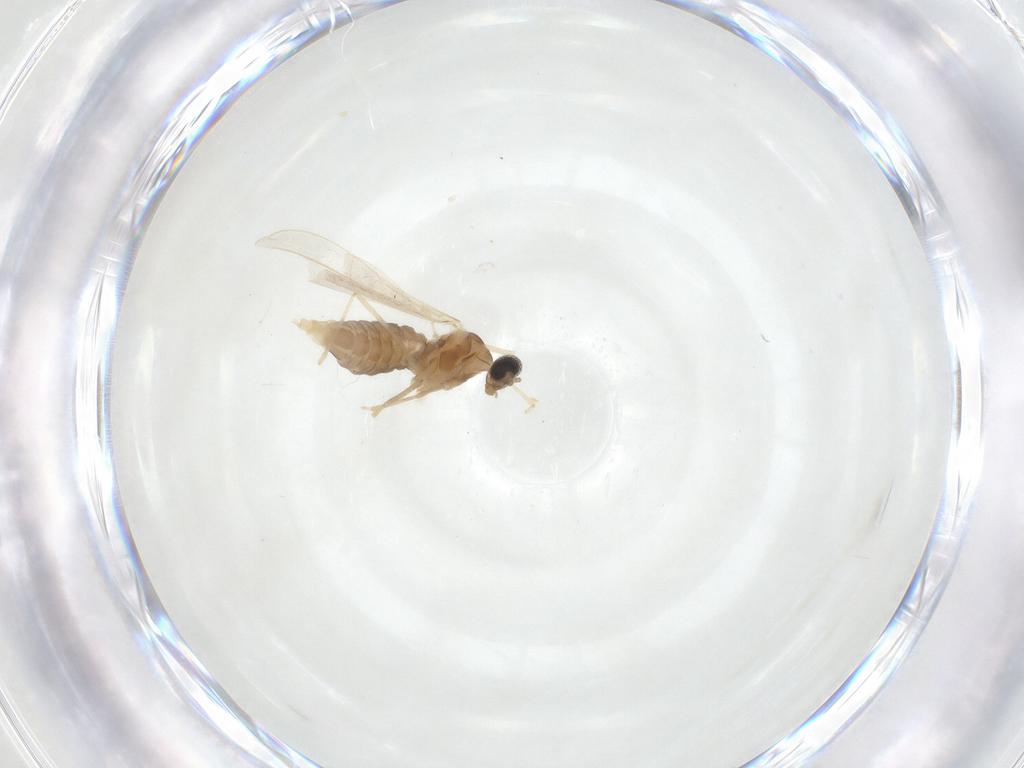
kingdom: Animalia
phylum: Arthropoda
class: Insecta
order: Diptera
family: Cecidomyiidae
